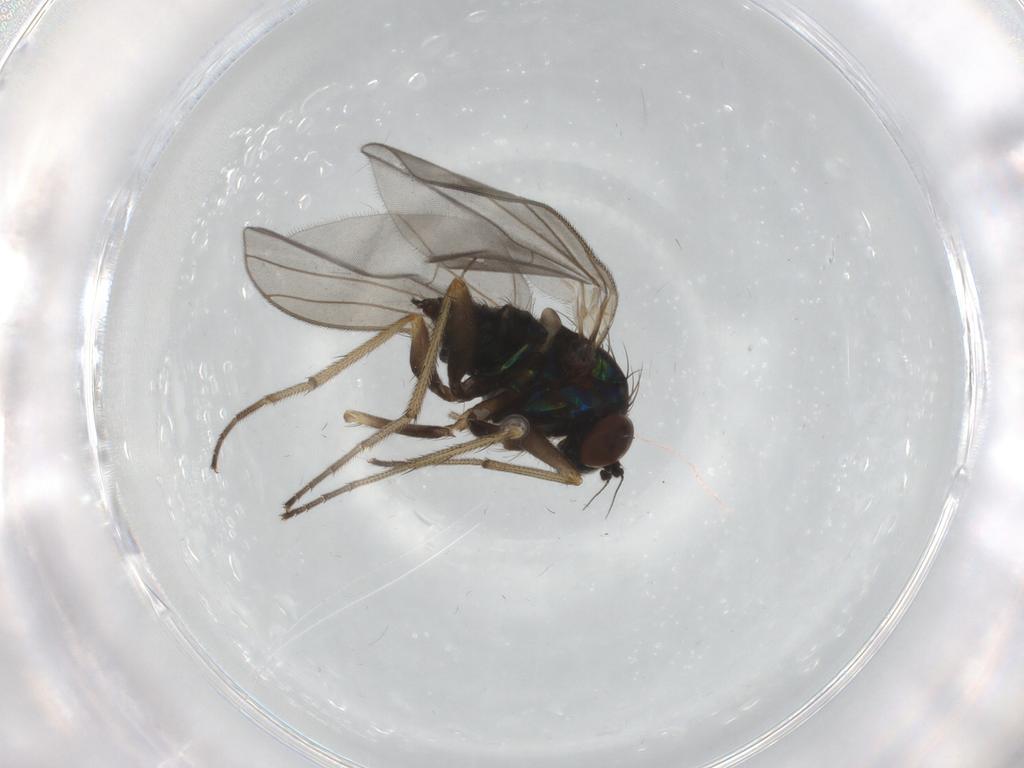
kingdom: Animalia
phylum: Arthropoda
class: Insecta
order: Diptera
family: Dolichopodidae
